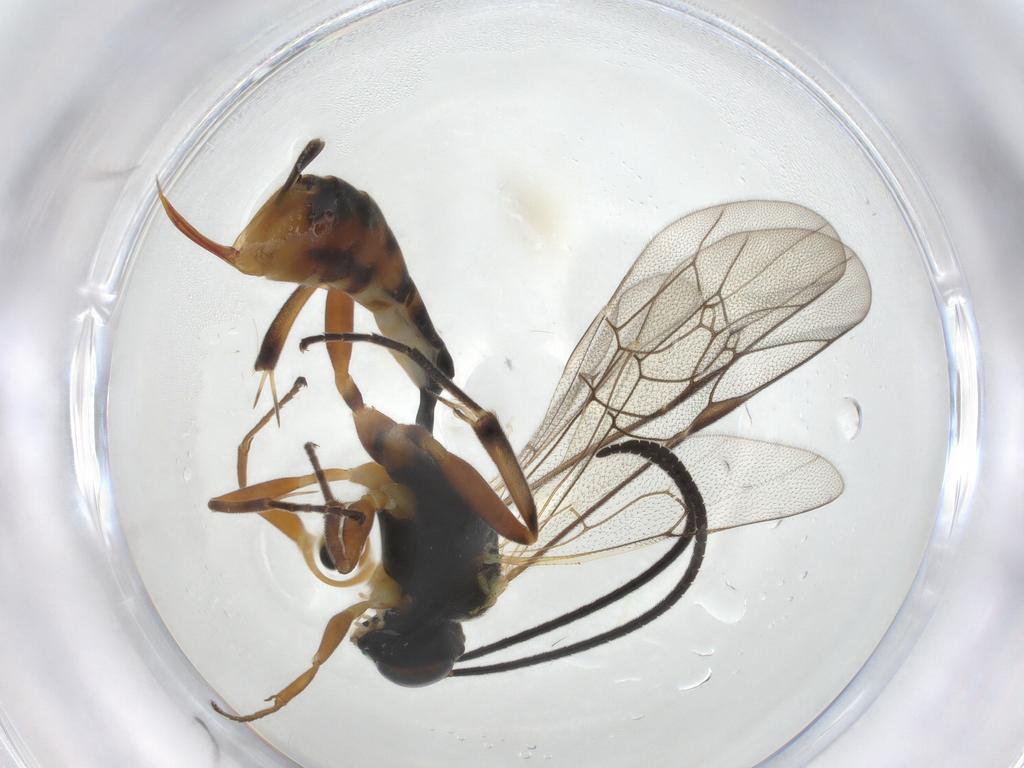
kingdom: Animalia
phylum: Arthropoda
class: Insecta
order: Hymenoptera
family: Ichneumonidae
